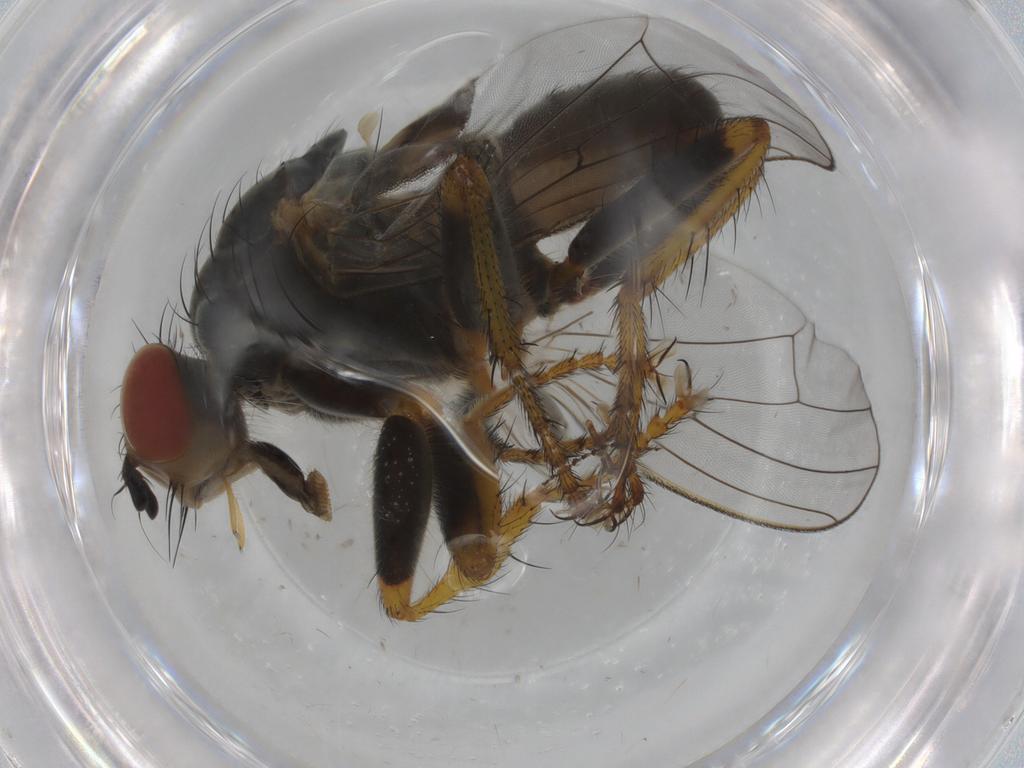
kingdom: Animalia
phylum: Arthropoda
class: Insecta
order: Diptera
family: Scathophagidae
